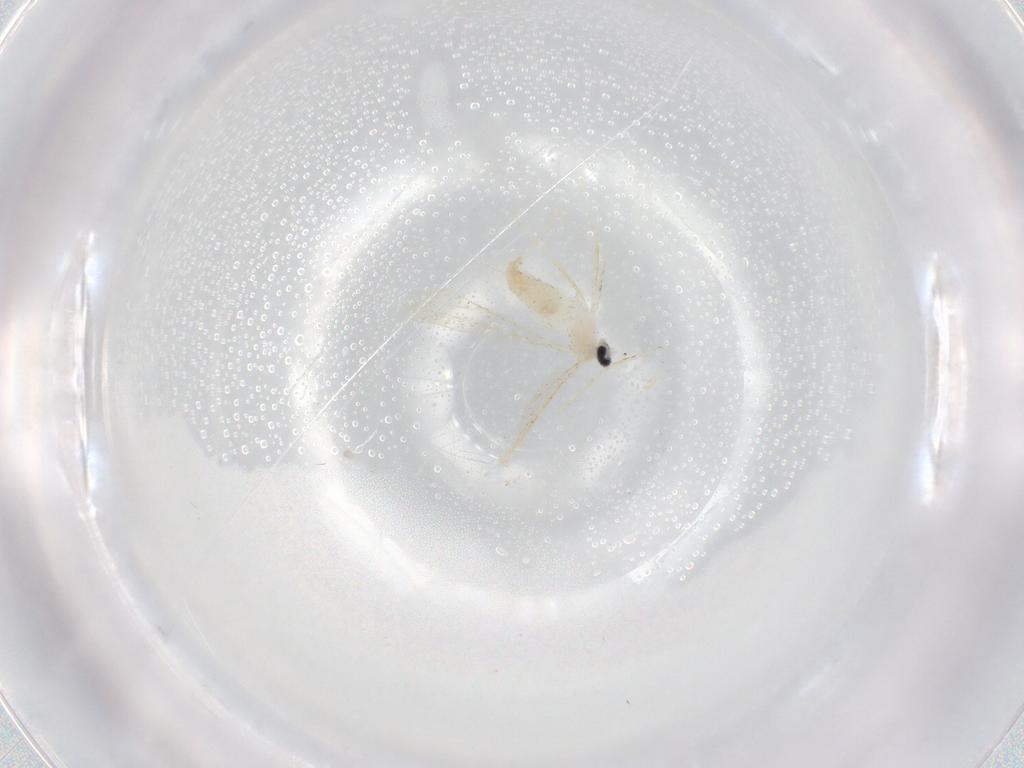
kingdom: Animalia
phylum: Arthropoda
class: Insecta
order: Diptera
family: Cecidomyiidae
